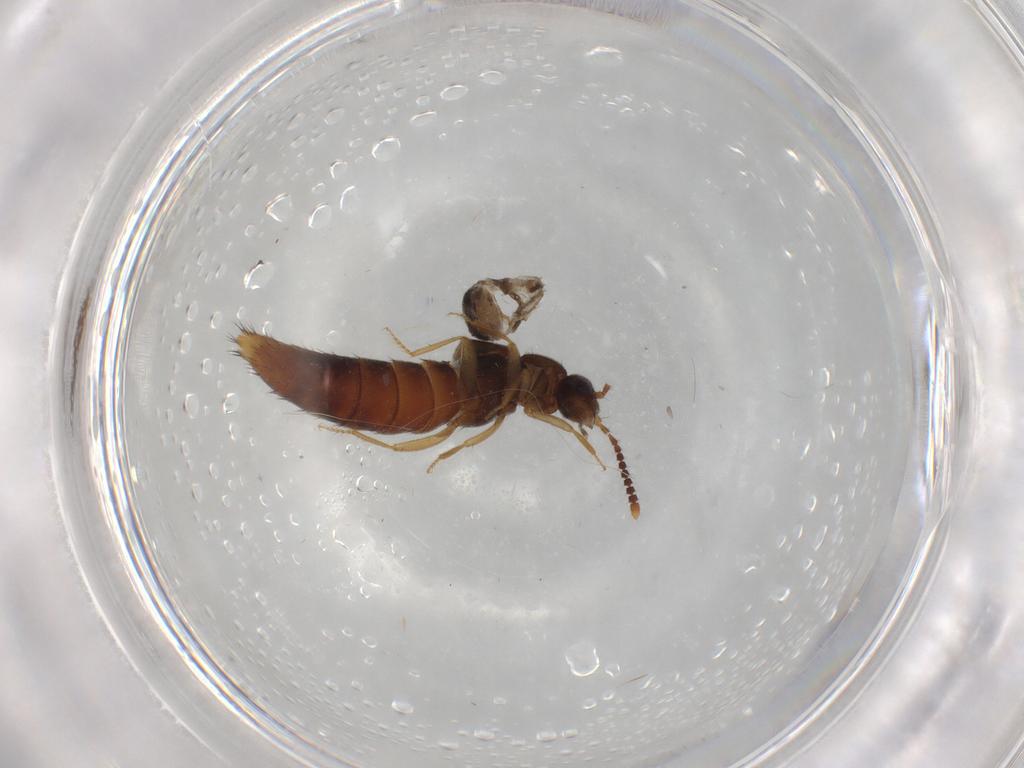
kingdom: Animalia
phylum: Arthropoda
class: Insecta
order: Coleoptera
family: Staphylinidae
